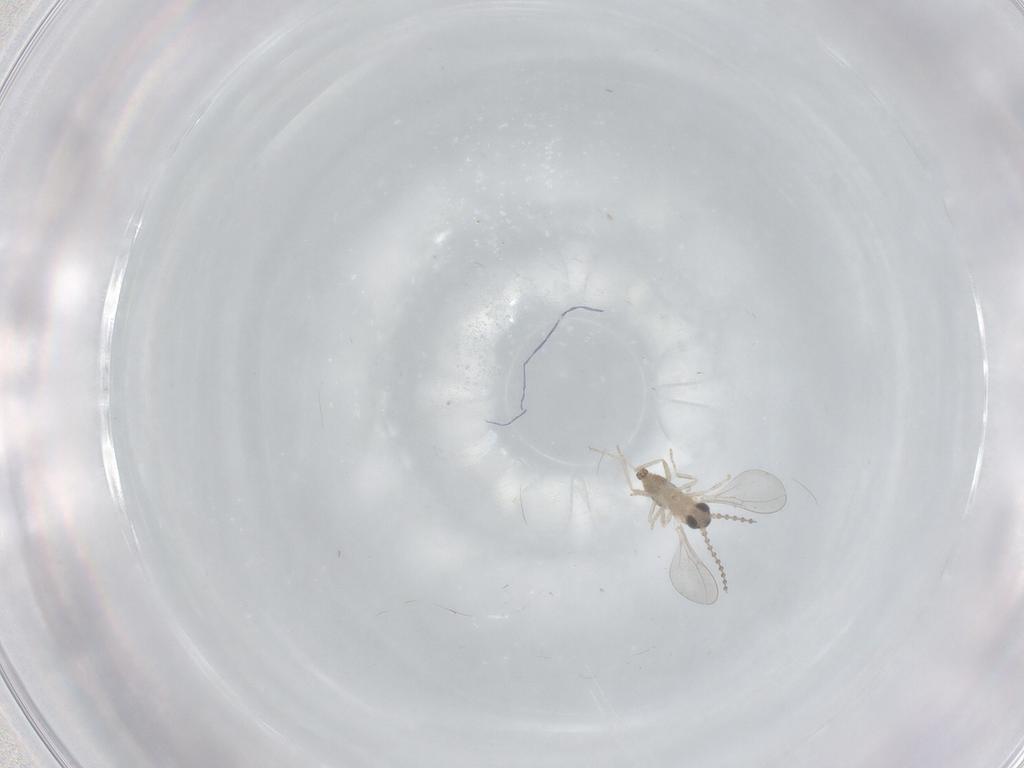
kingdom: Animalia
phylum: Arthropoda
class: Insecta
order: Diptera
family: Cecidomyiidae
